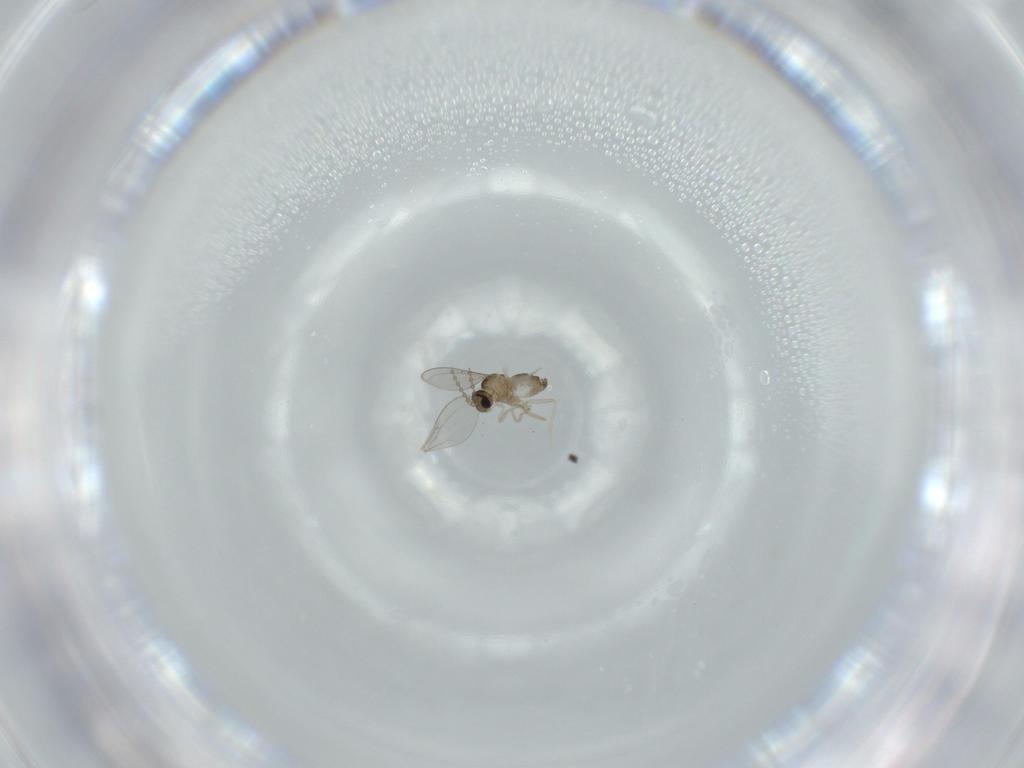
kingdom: Animalia
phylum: Arthropoda
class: Insecta
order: Diptera
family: Cecidomyiidae
